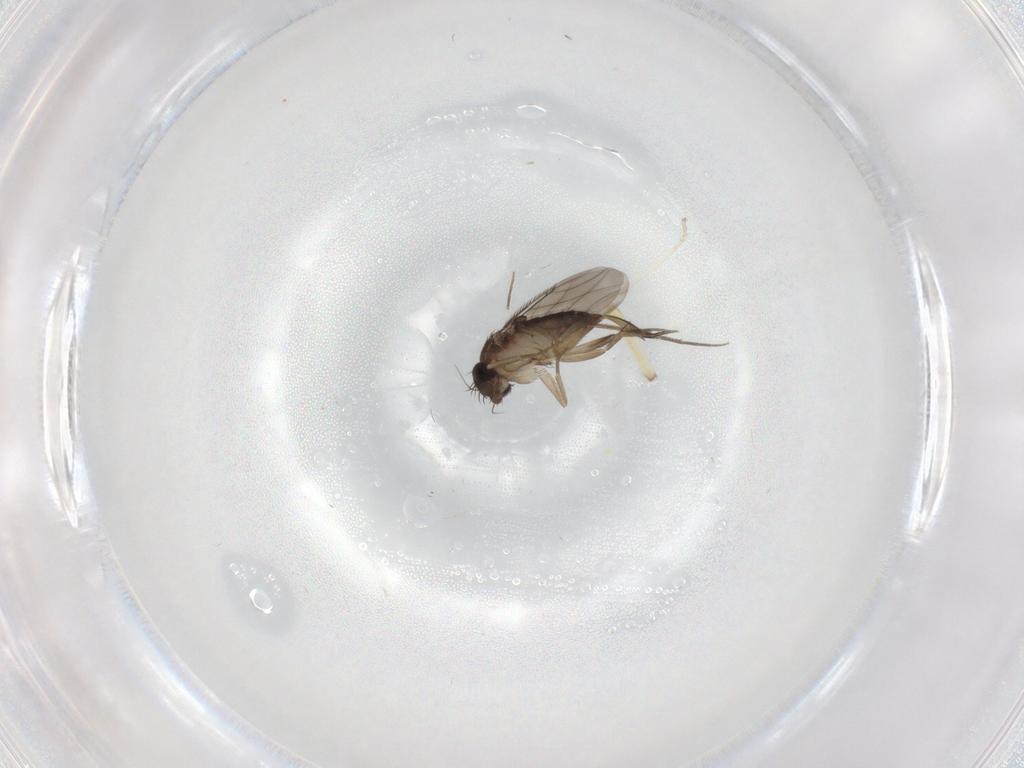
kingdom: Animalia
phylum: Arthropoda
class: Insecta
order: Diptera
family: Phoridae
